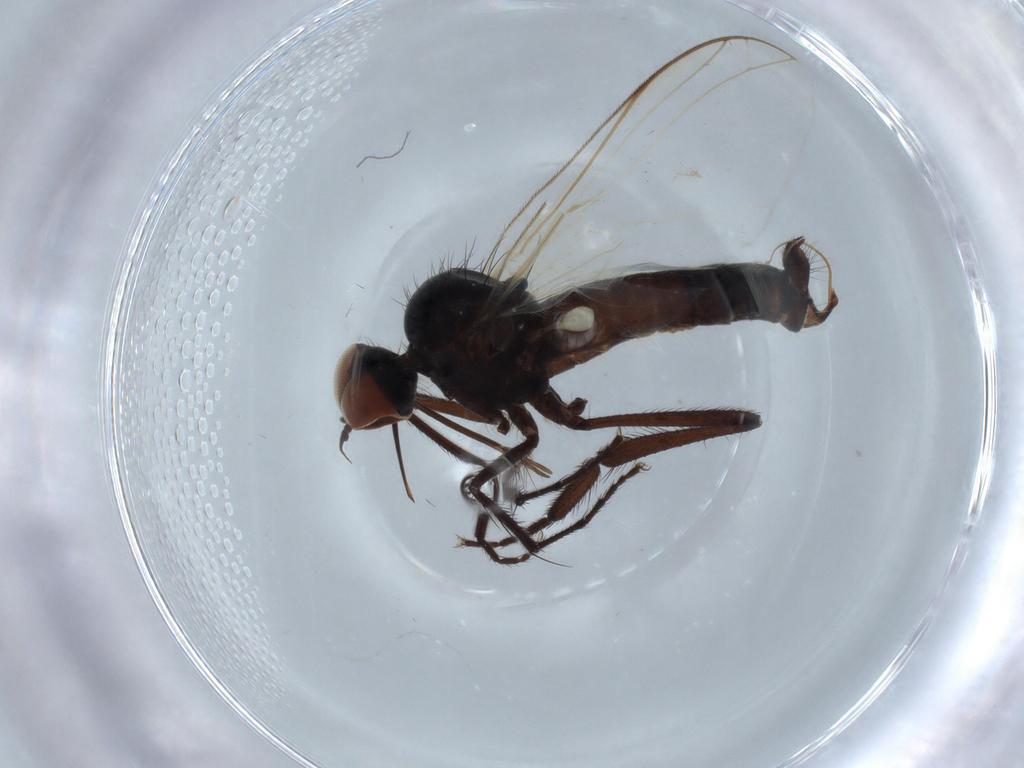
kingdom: Animalia
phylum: Arthropoda
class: Insecta
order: Diptera
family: Empididae
